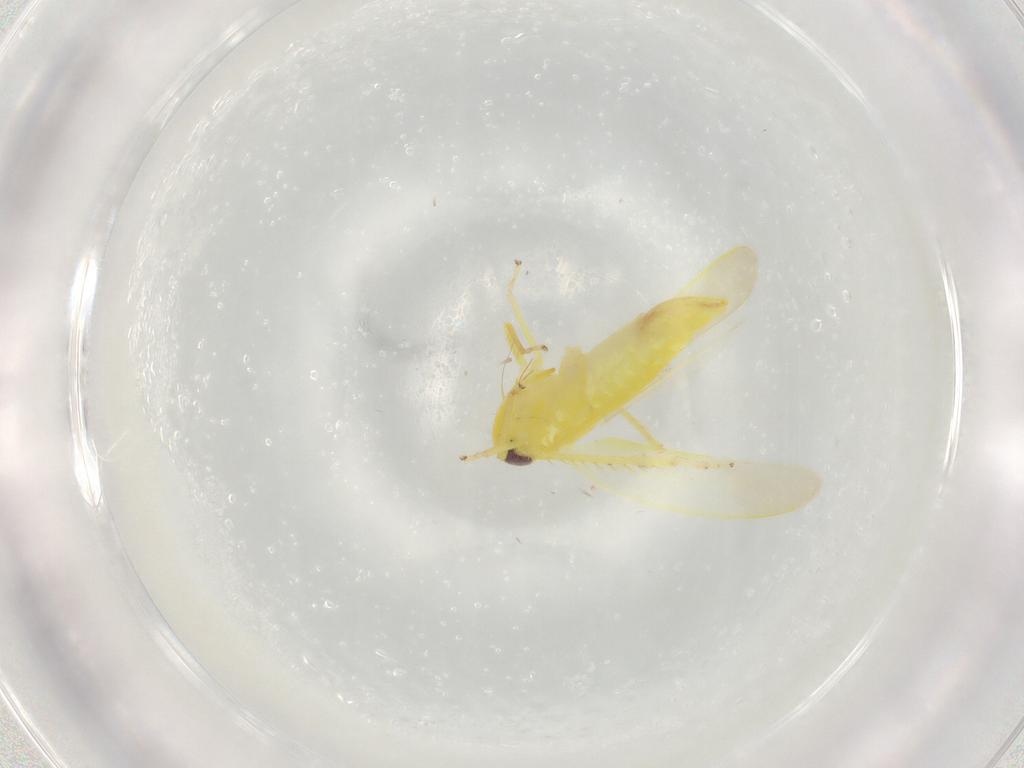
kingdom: Animalia
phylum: Arthropoda
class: Insecta
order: Hemiptera
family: Cicadellidae
